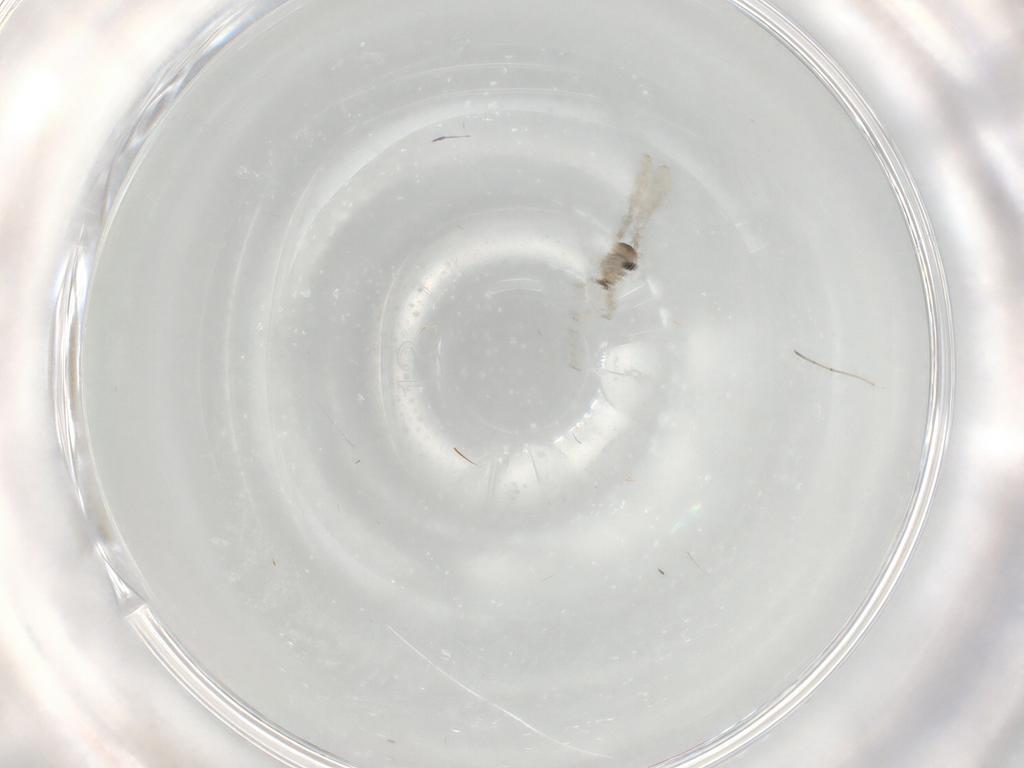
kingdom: Animalia
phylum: Arthropoda
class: Insecta
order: Diptera
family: Cecidomyiidae
